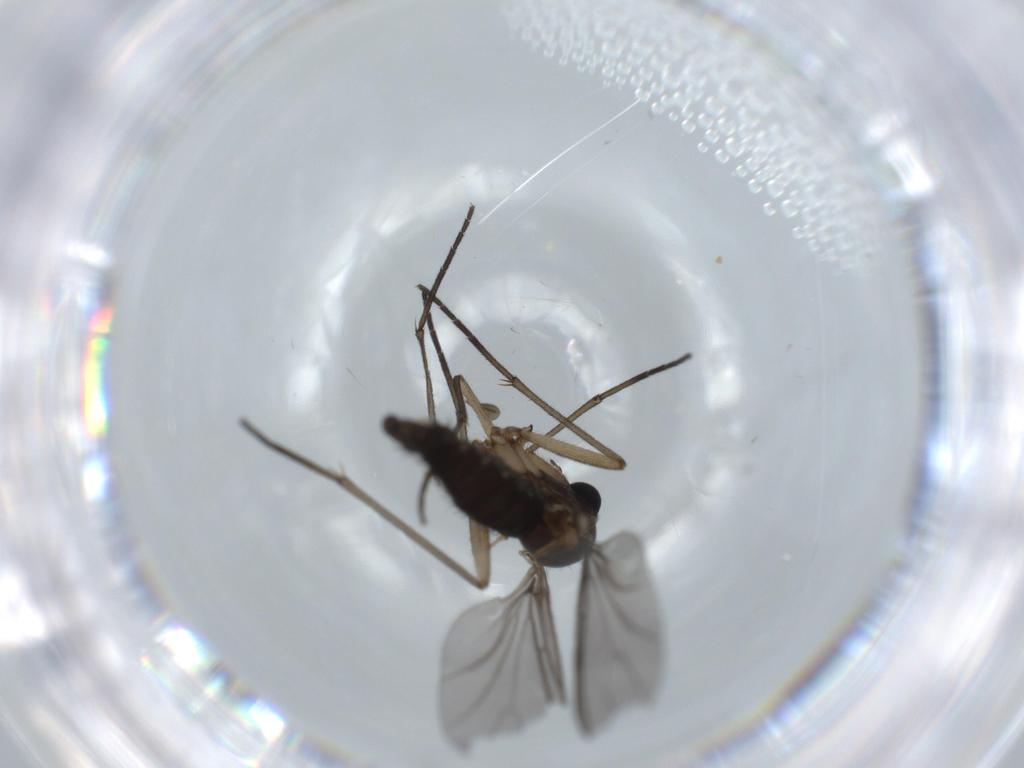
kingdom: Animalia
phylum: Arthropoda
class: Insecta
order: Diptera
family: Sciaridae
